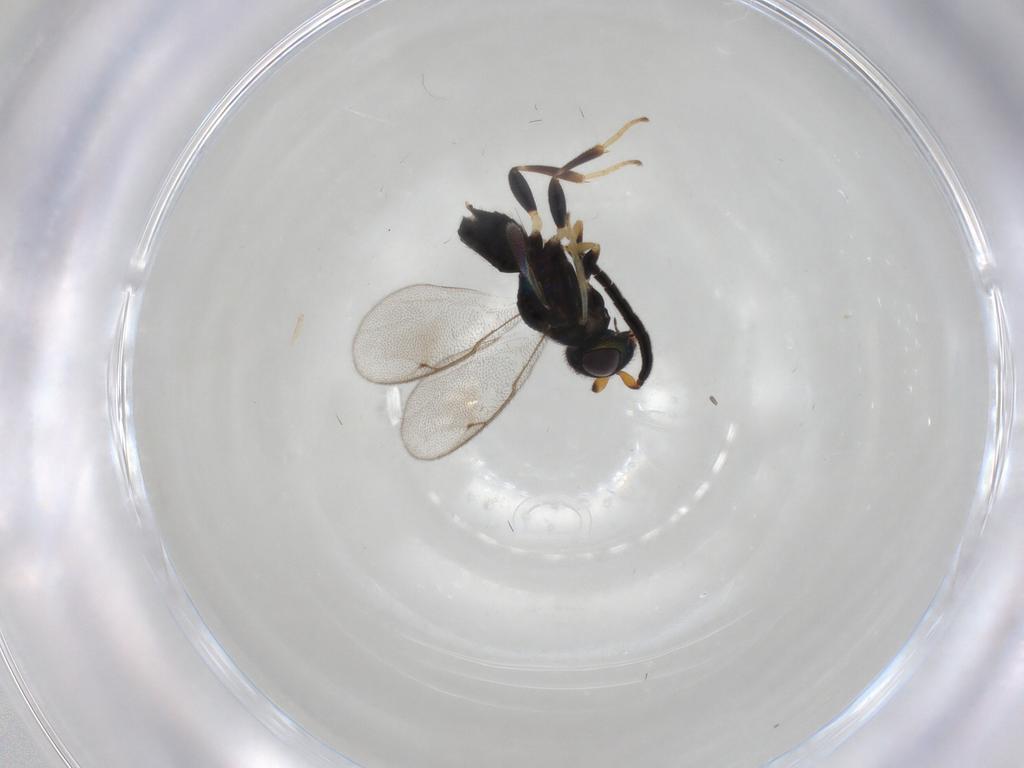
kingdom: Animalia
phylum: Arthropoda
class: Insecta
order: Hymenoptera
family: Eupelmidae
